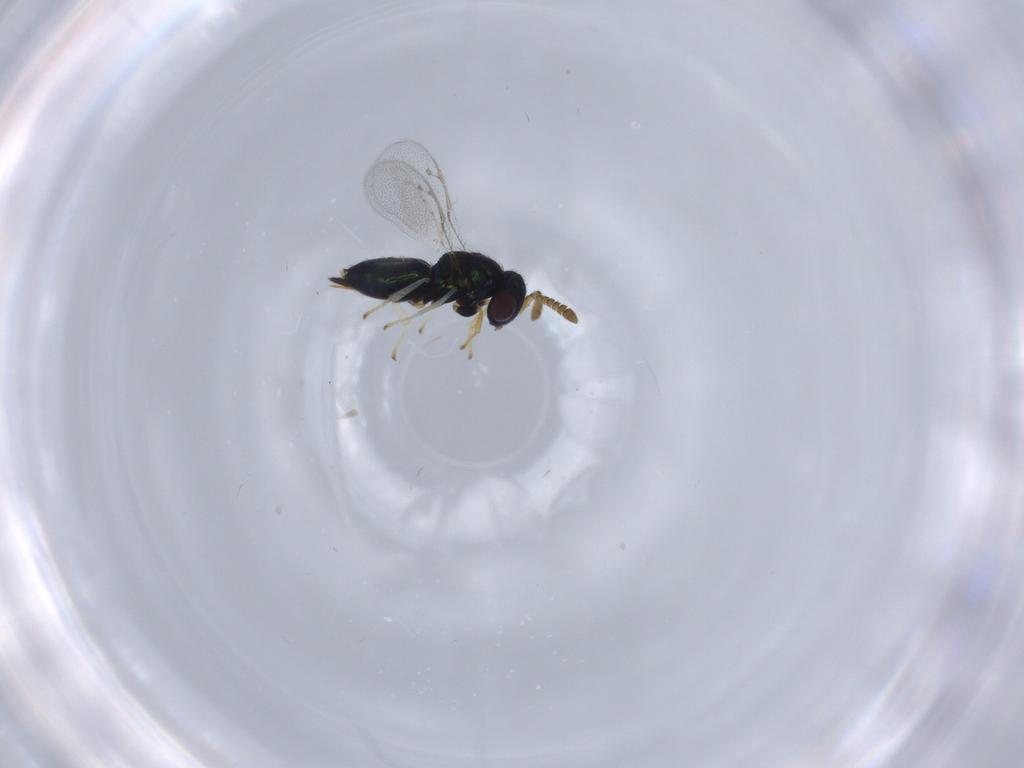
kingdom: Animalia
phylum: Arthropoda
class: Insecta
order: Hymenoptera
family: Pirenidae
